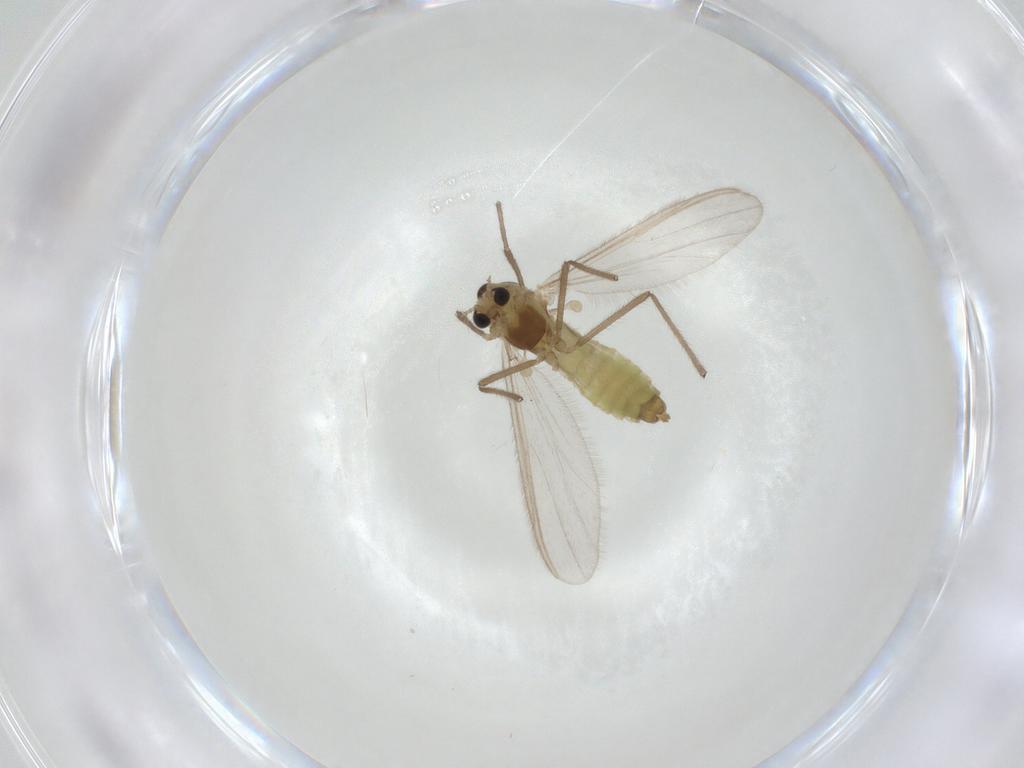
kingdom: Animalia
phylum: Arthropoda
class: Insecta
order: Diptera
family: Chironomidae
